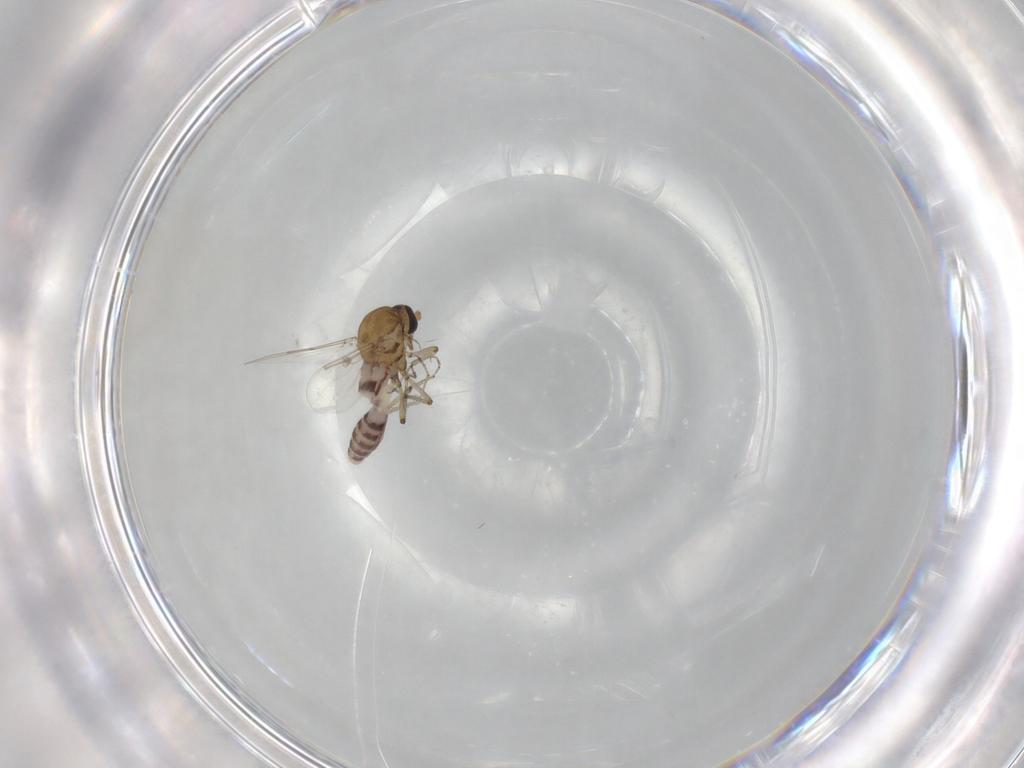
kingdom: Animalia
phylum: Arthropoda
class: Insecta
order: Diptera
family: Ceratopogonidae
